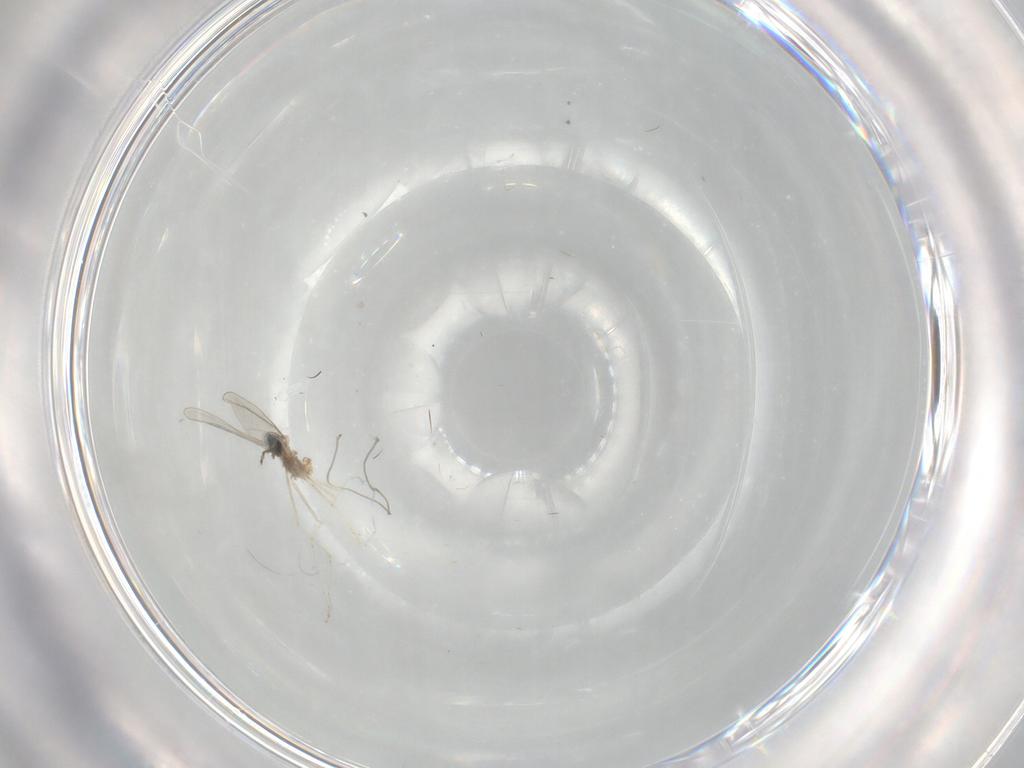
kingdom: Animalia
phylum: Arthropoda
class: Insecta
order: Diptera
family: Cecidomyiidae
